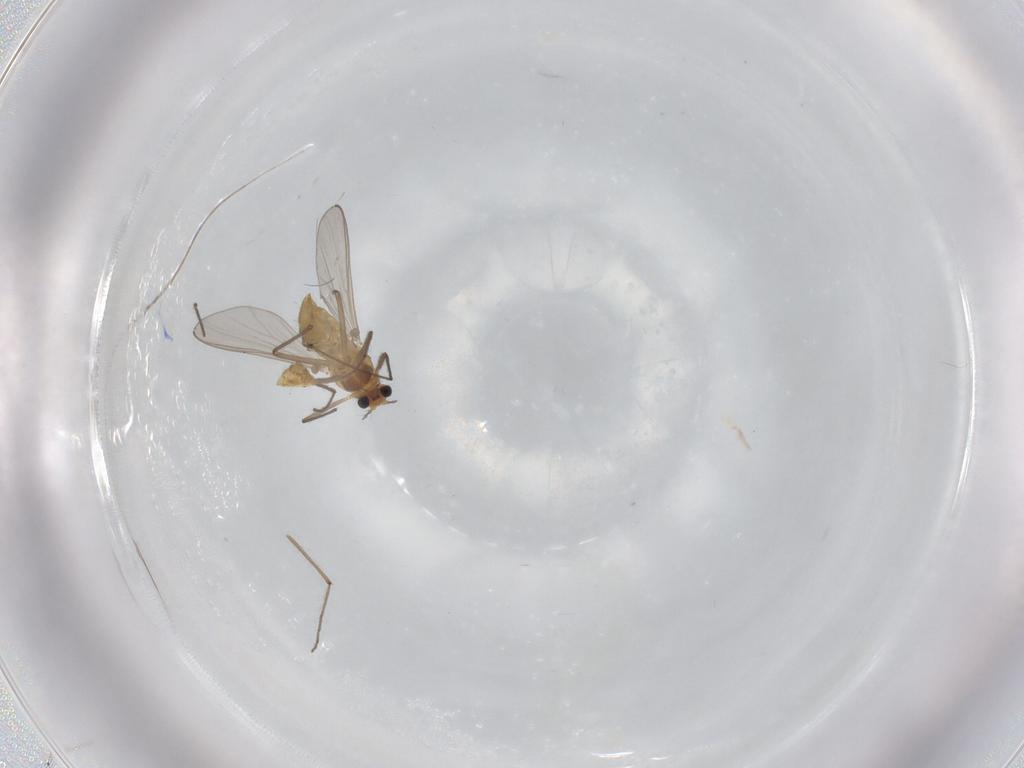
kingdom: Animalia
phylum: Arthropoda
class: Insecta
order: Diptera
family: Chironomidae
